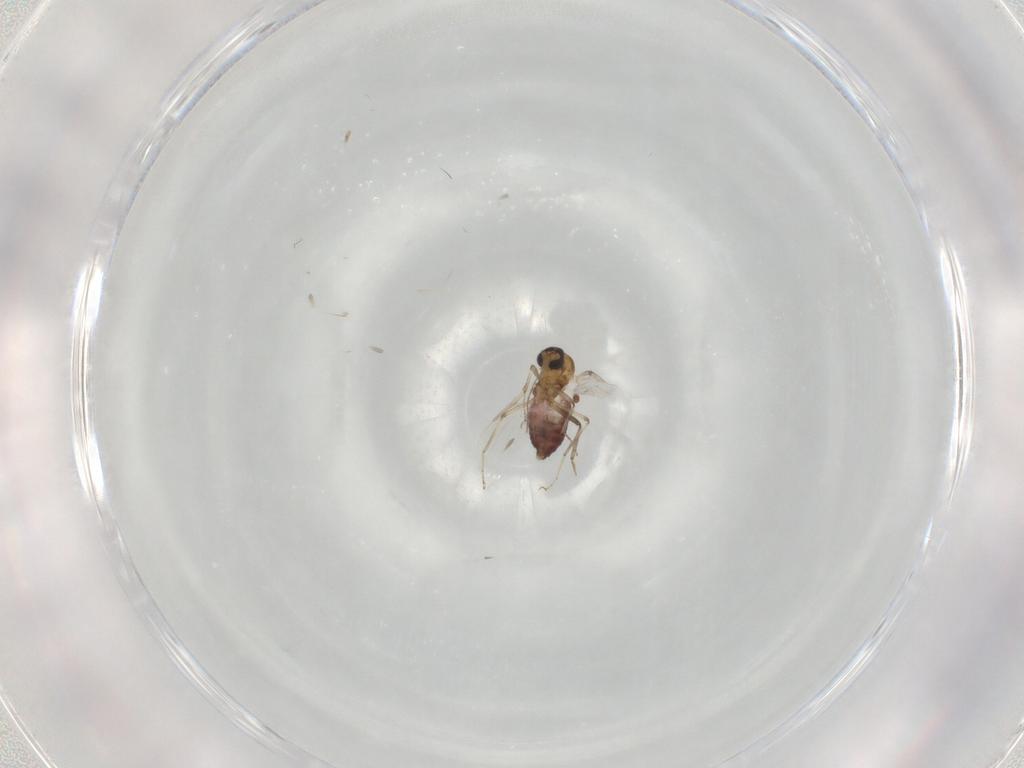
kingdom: Animalia
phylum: Arthropoda
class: Insecta
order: Diptera
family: Ceratopogonidae
